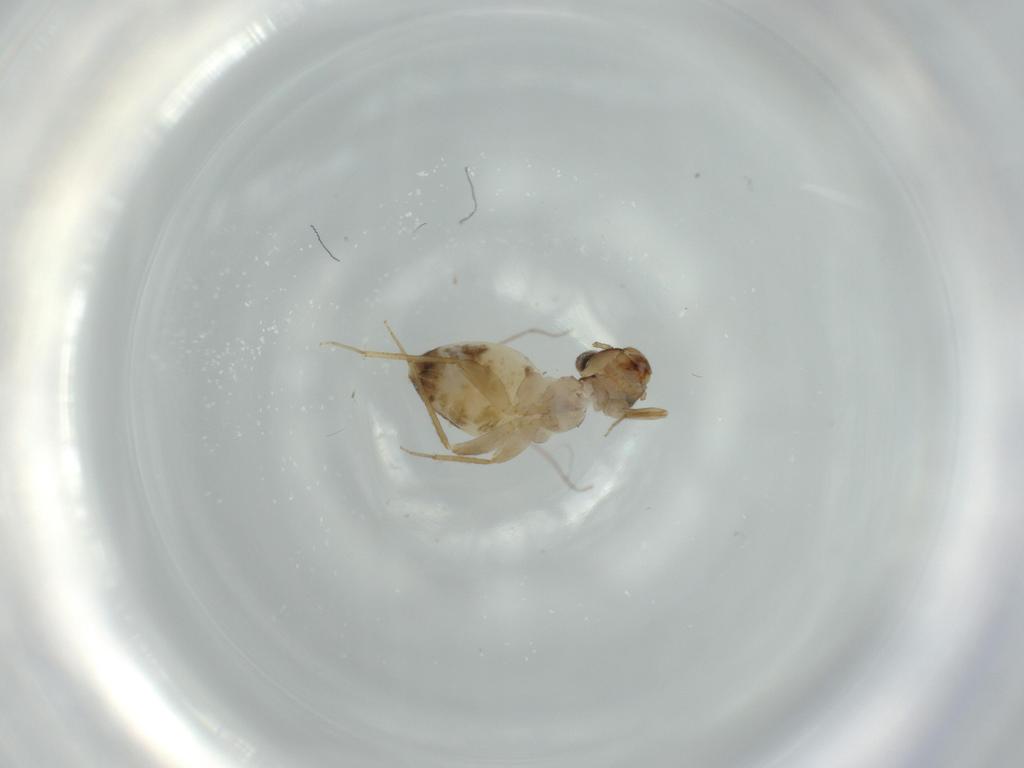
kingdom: Animalia
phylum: Arthropoda
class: Insecta
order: Psocodea
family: Lepidopsocidae
